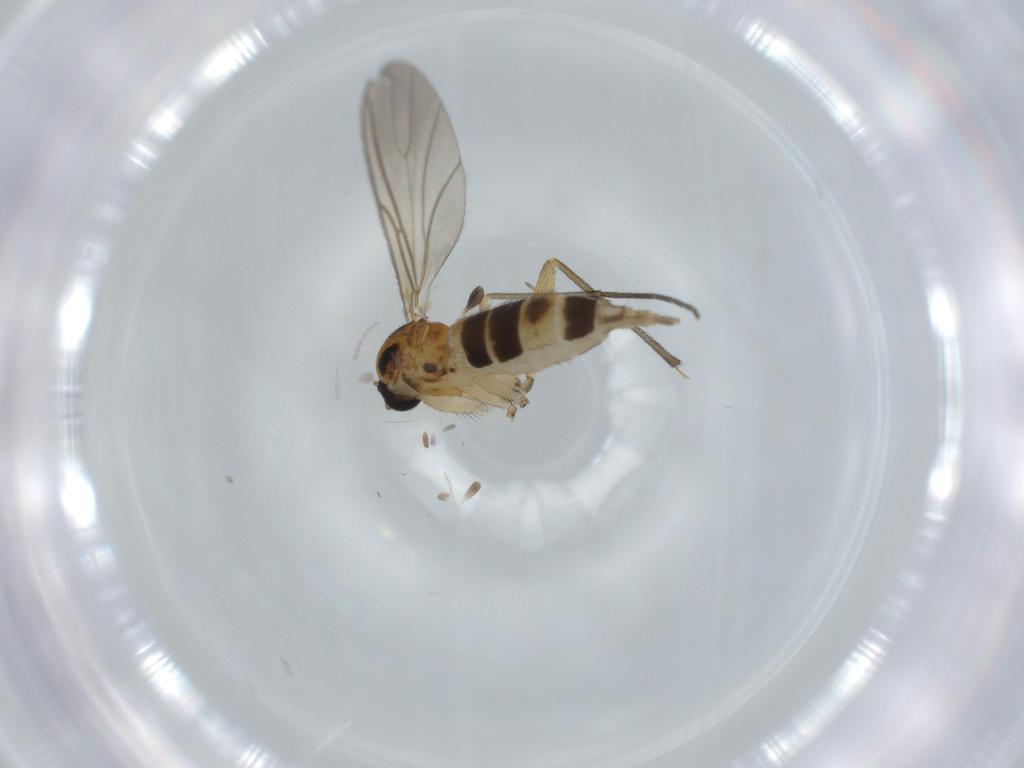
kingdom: Animalia
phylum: Arthropoda
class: Insecta
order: Diptera
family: Cecidomyiidae
